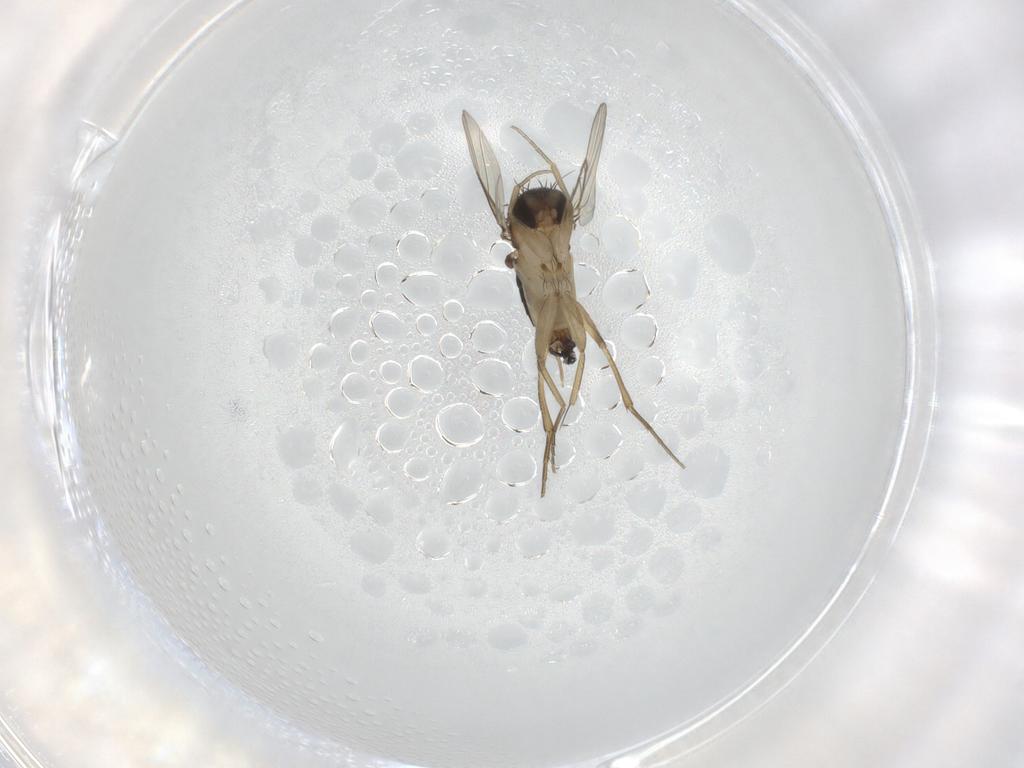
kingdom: Animalia
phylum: Arthropoda
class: Insecta
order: Diptera
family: Phoridae
